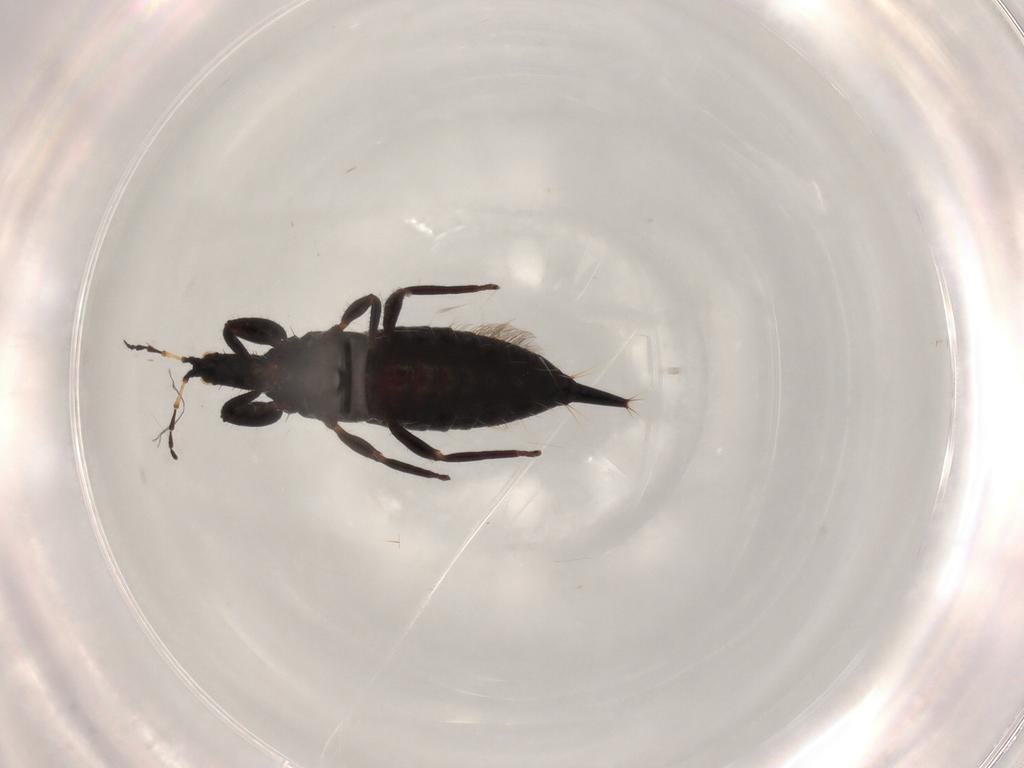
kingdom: Animalia
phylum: Arthropoda
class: Insecta
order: Thysanoptera
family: Phlaeothripidae
